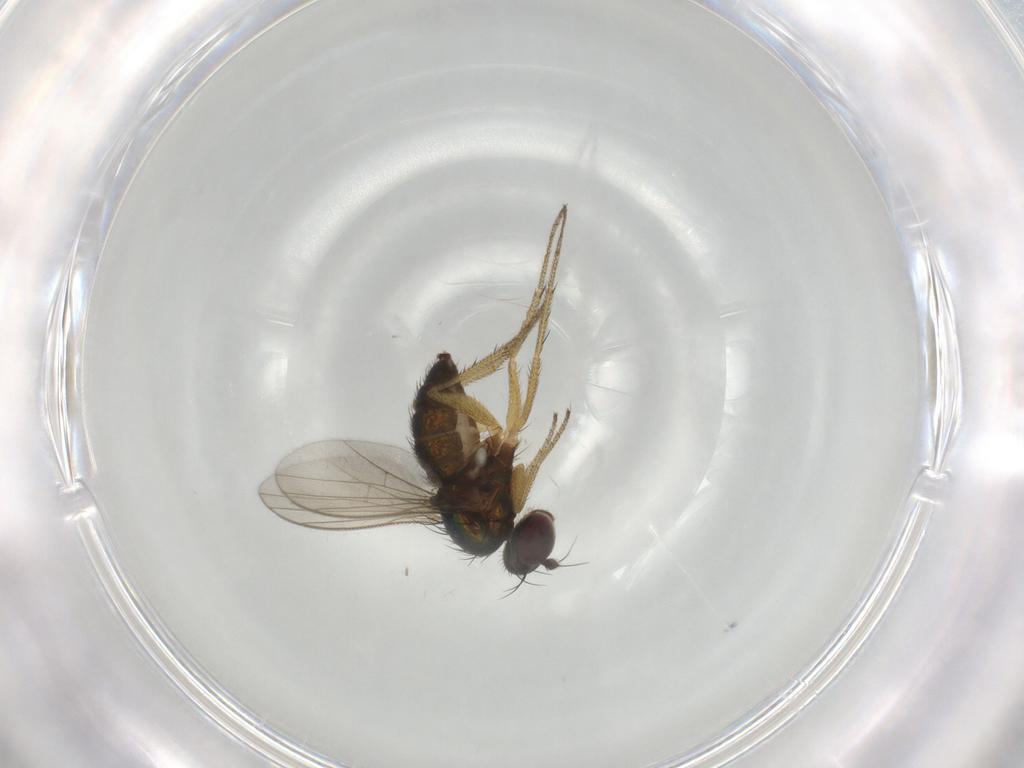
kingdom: Animalia
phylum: Arthropoda
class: Insecta
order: Diptera
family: Dolichopodidae
